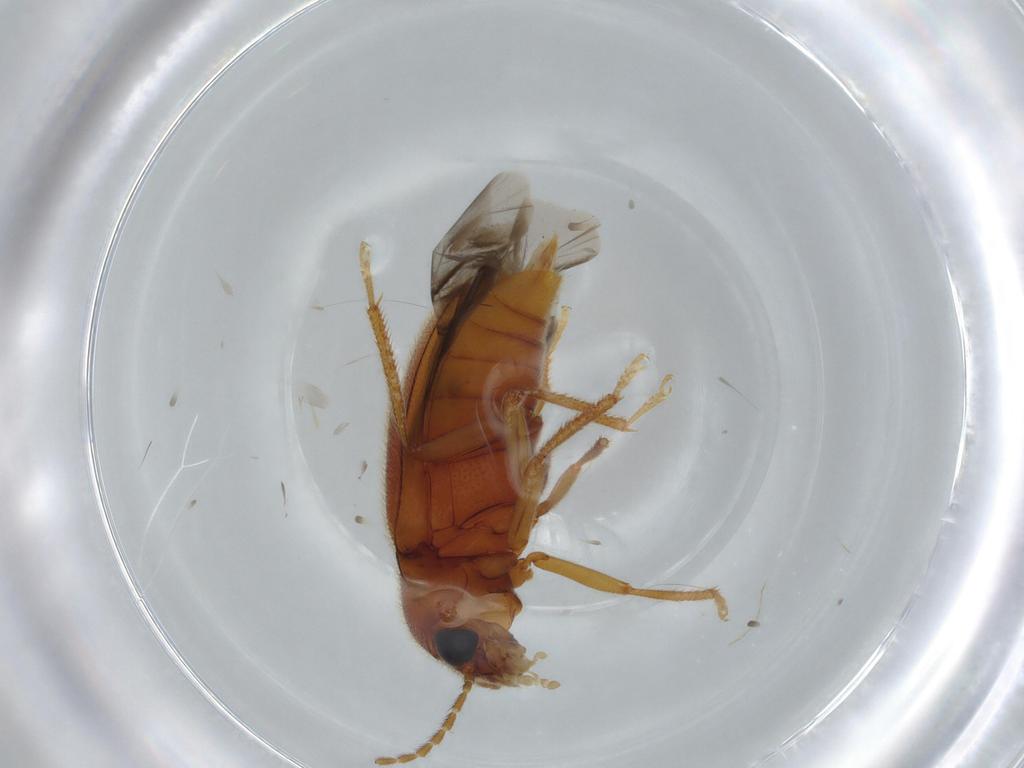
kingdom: Animalia
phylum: Arthropoda
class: Insecta
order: Coleoptera
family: Ptilodactylidae
